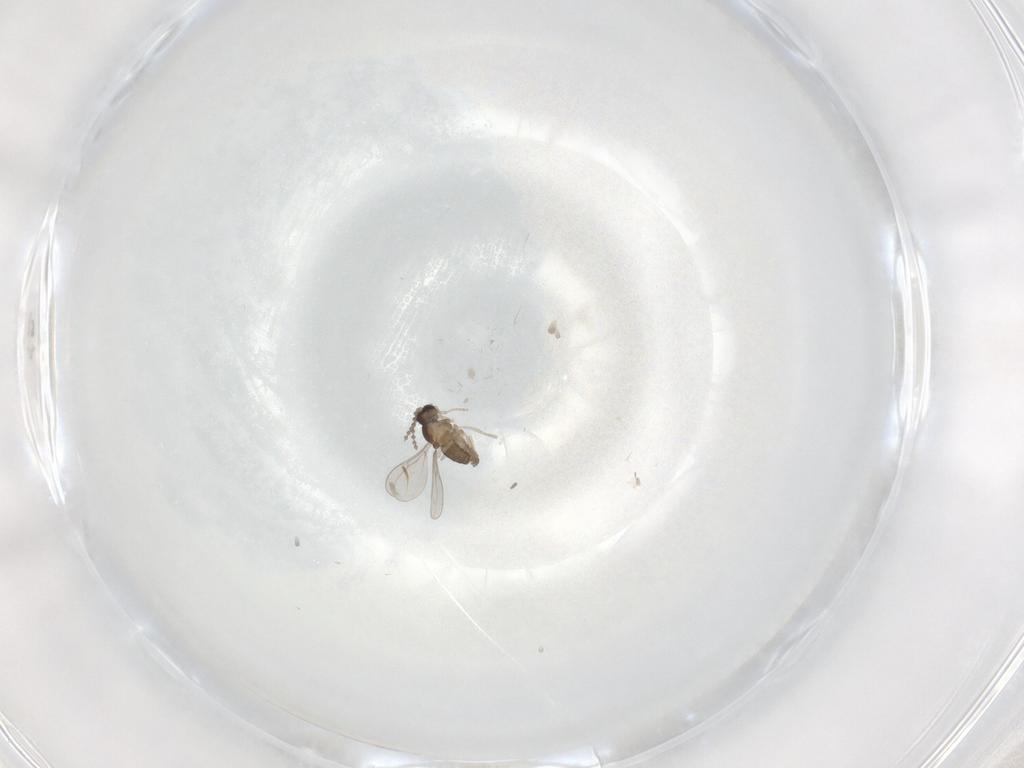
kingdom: Animalia
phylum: Arthropoda
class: Insecta
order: Diptera
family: Cecidomyiidae
